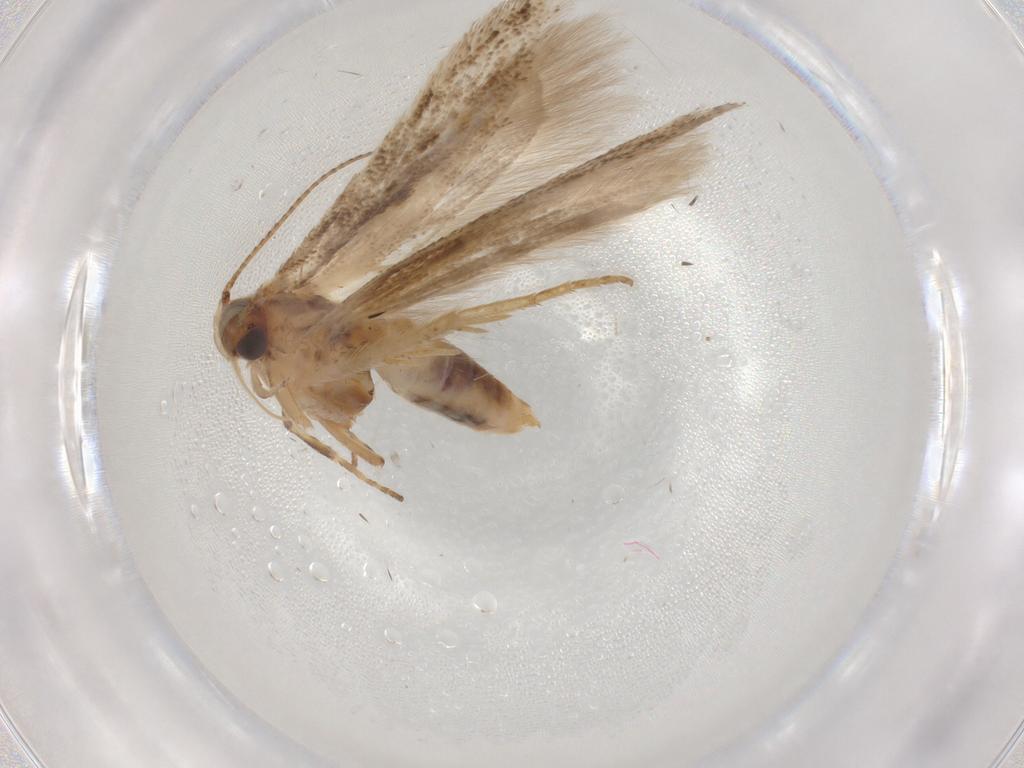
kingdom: Animalia
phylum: Arthropoda
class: Insecta
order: Lepidoptera
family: Gelechiidae
